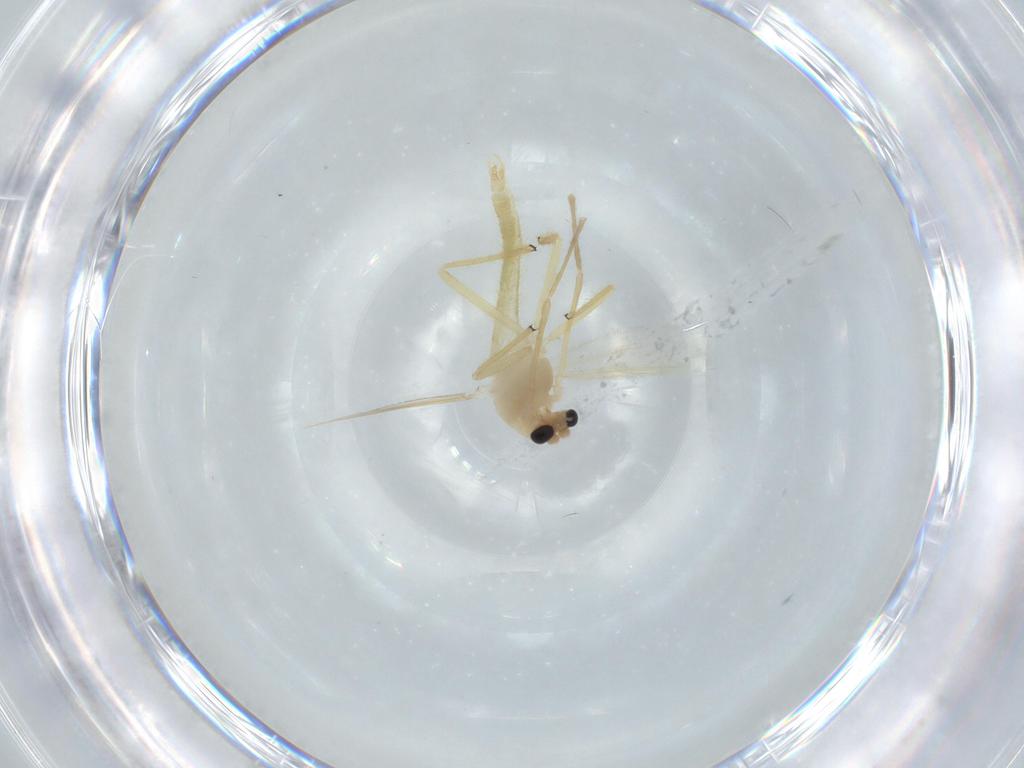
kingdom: Animalia
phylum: Arthropoda
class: Insecta
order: Diptera
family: Chironomidae
